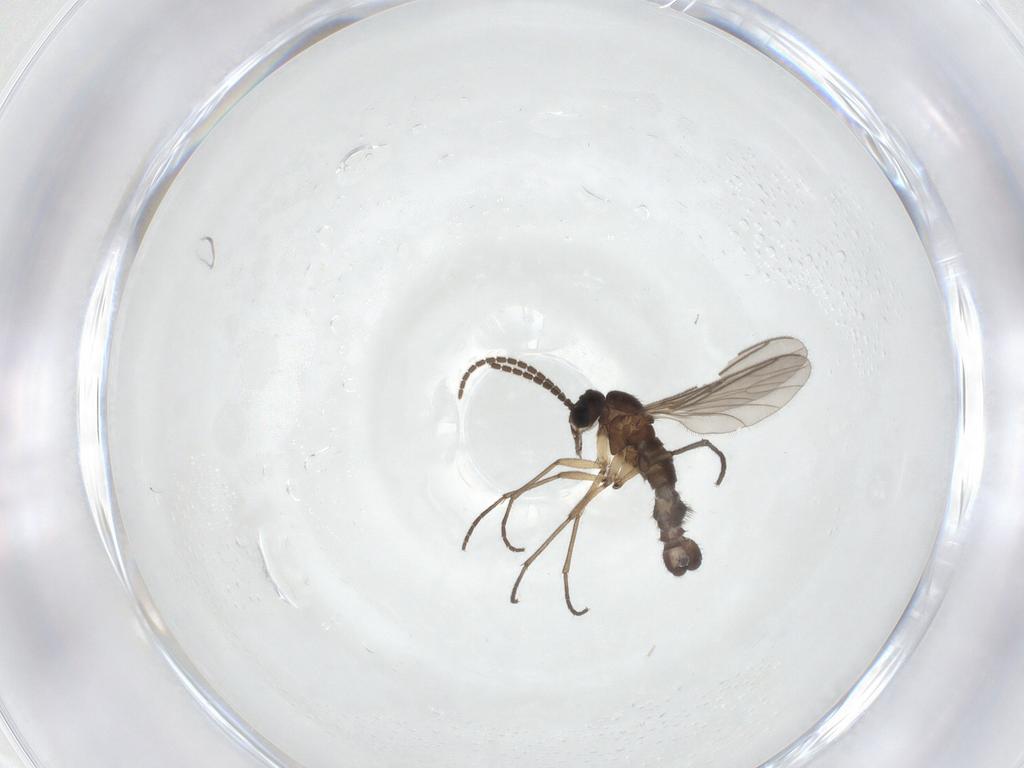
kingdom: Animalia
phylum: Arthropoda
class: Insecta
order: Diptera
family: Sciaridae
